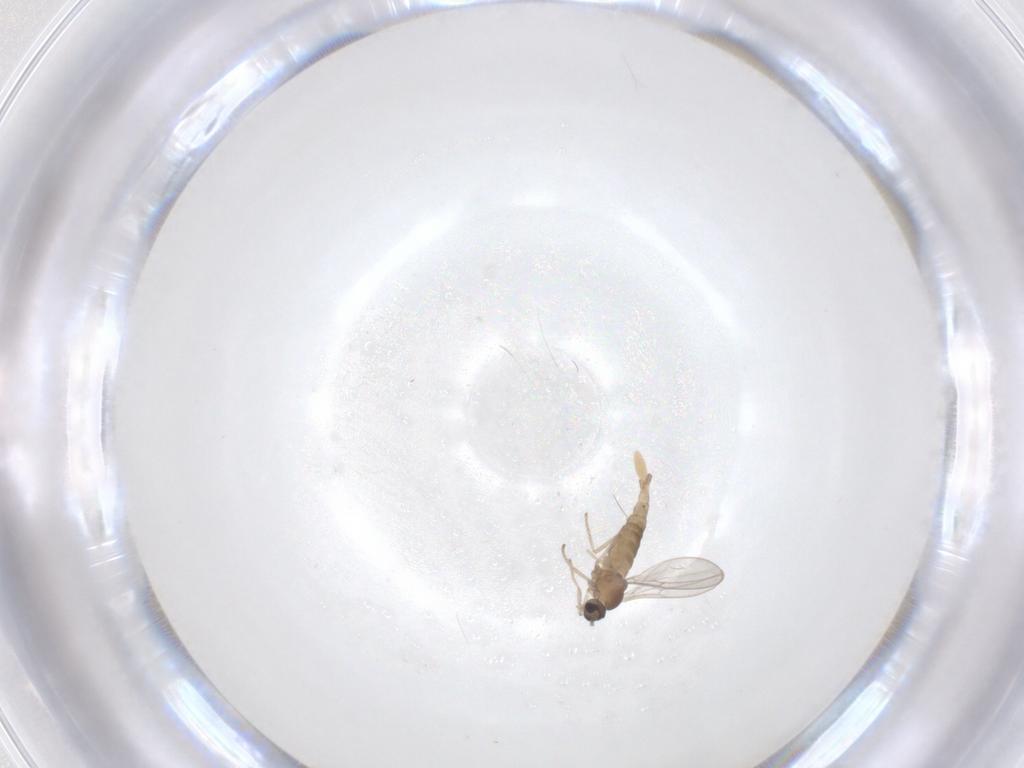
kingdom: Animalia
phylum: Arthropoda
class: Insecta
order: Diptera
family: Cecidomyiidae
